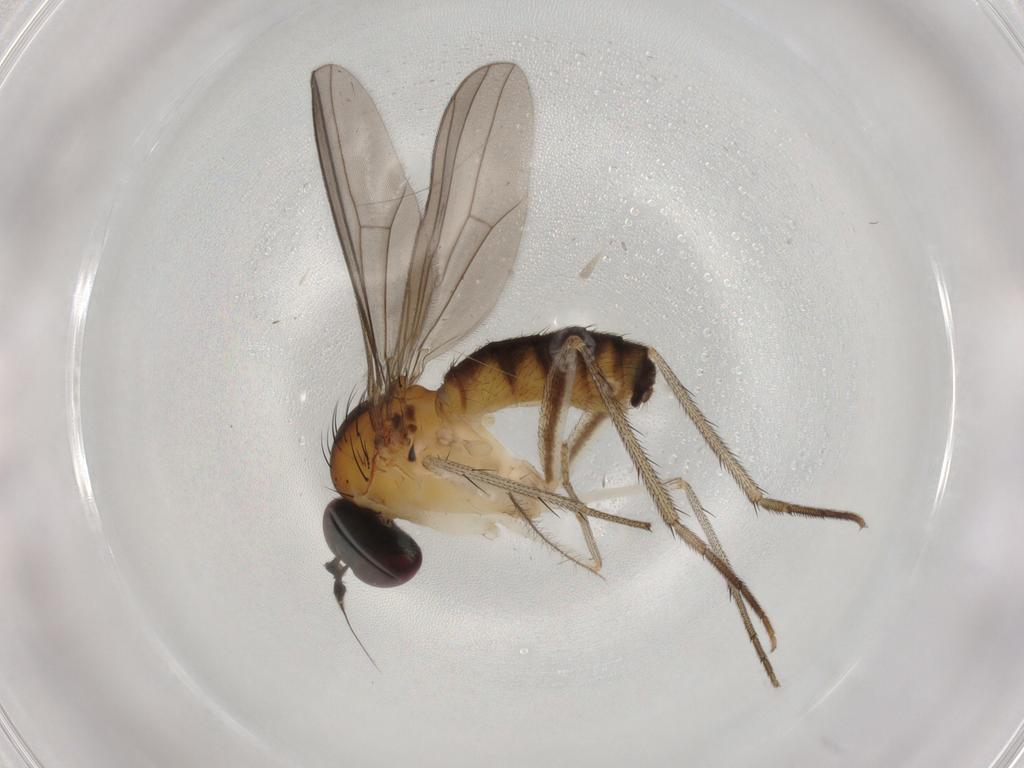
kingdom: Animalia
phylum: Arthropoda
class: Insecta
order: Diptera
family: Dolichopodidae
